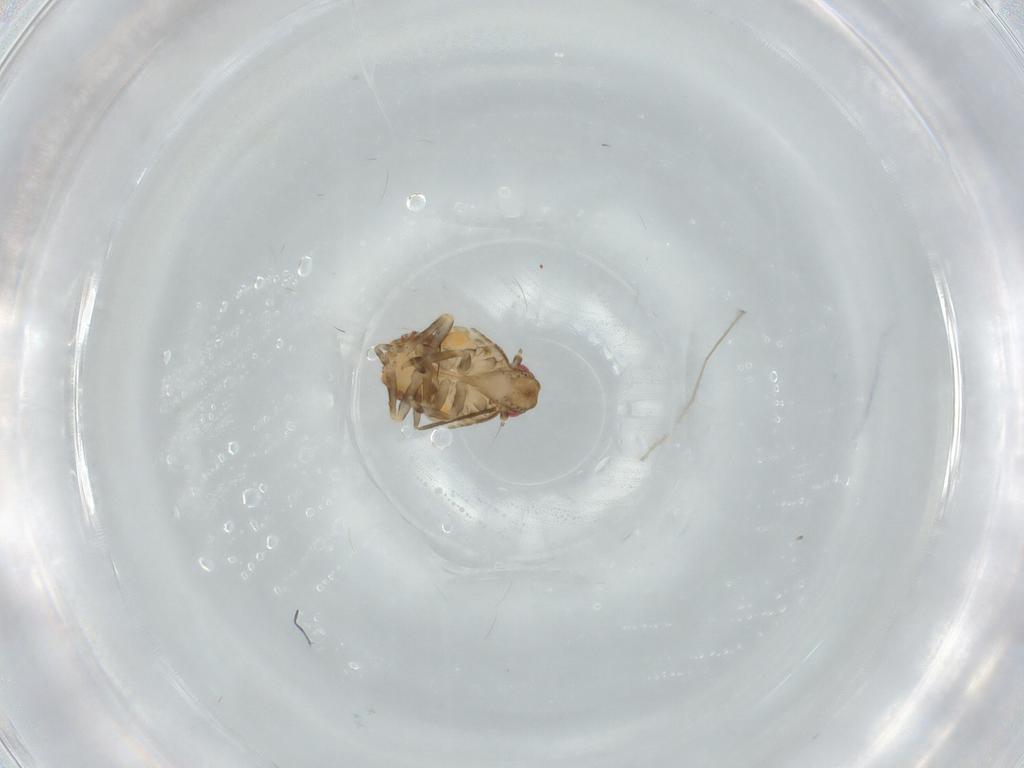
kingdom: Animalia
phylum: Arthropoda
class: Insecta
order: Hemiptera
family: Flatidae
